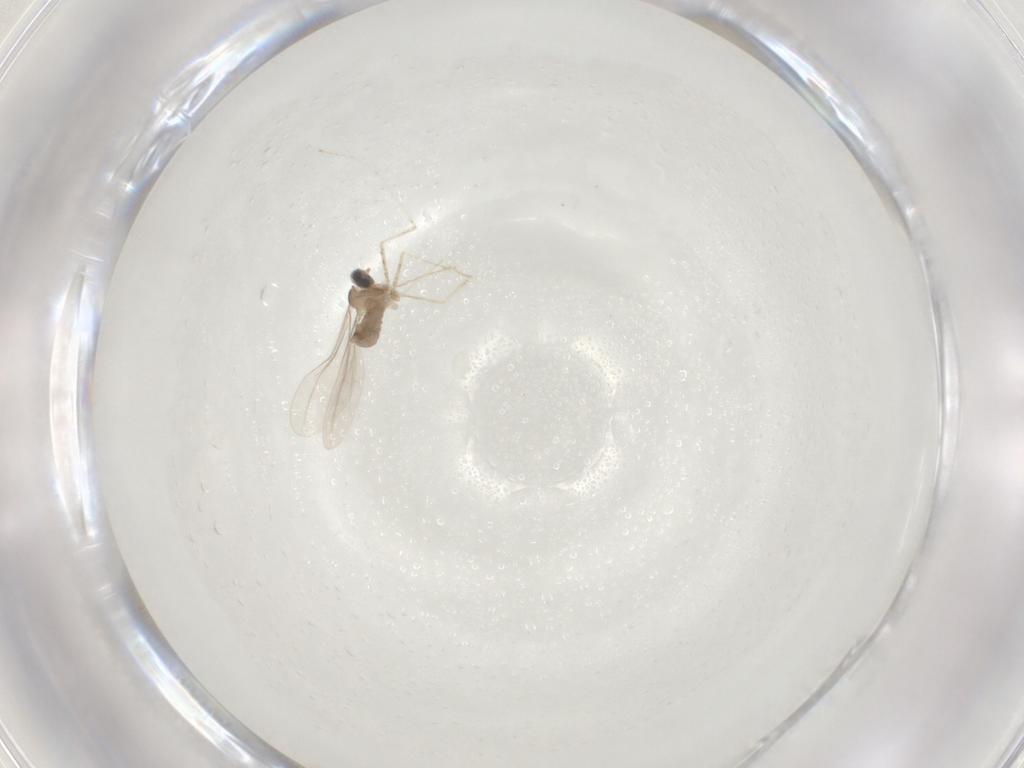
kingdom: Animalia
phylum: Arthropoda
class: Insecta
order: Diptera
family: Cecidomyiidae
